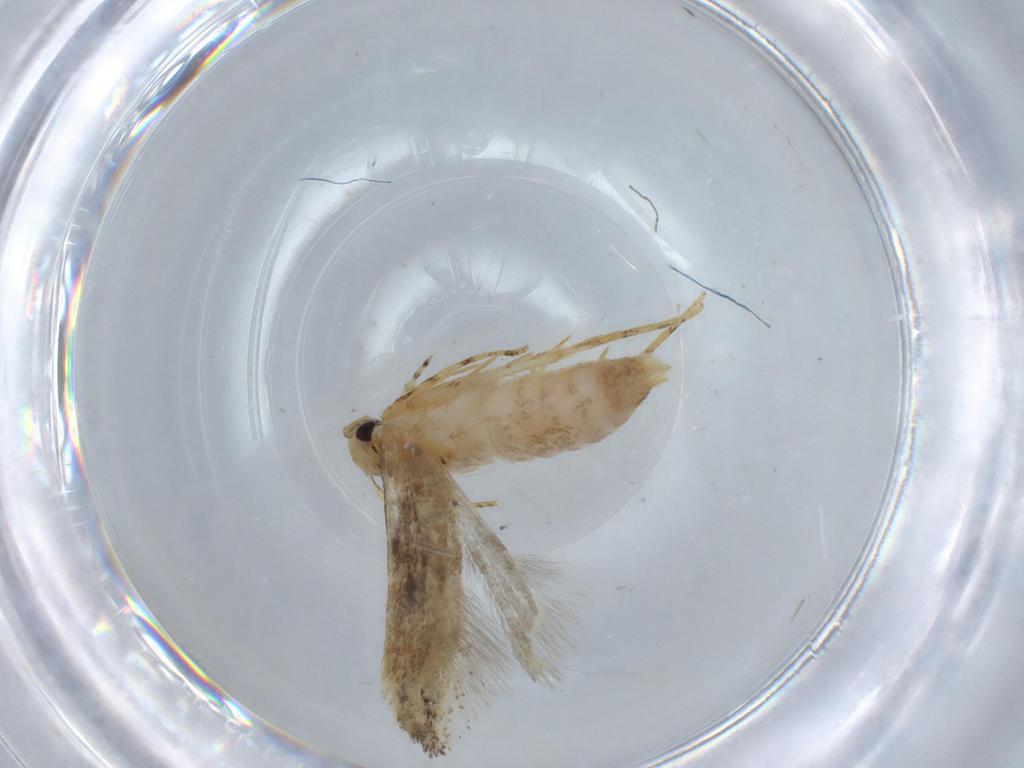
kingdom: Animalia
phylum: Arthropoda
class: Insecta
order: Lepidoptera
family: Gelechiidae
